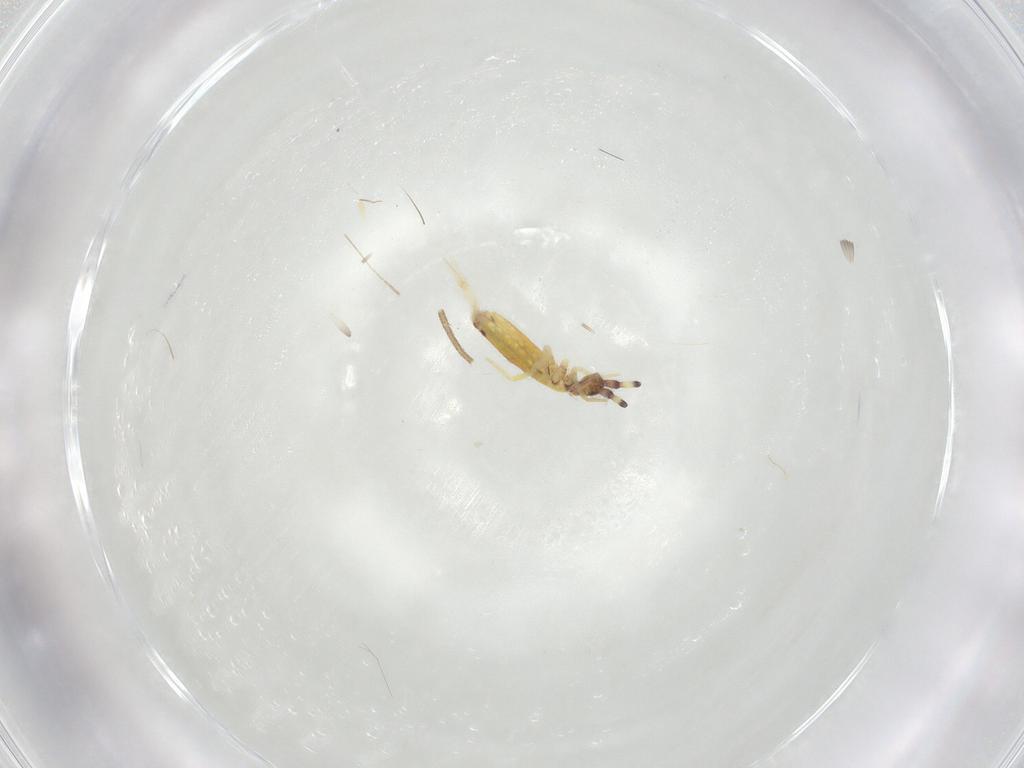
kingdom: Animalia
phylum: Arthropoda
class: Insecta
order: Diptera
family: Mycetophilidae
